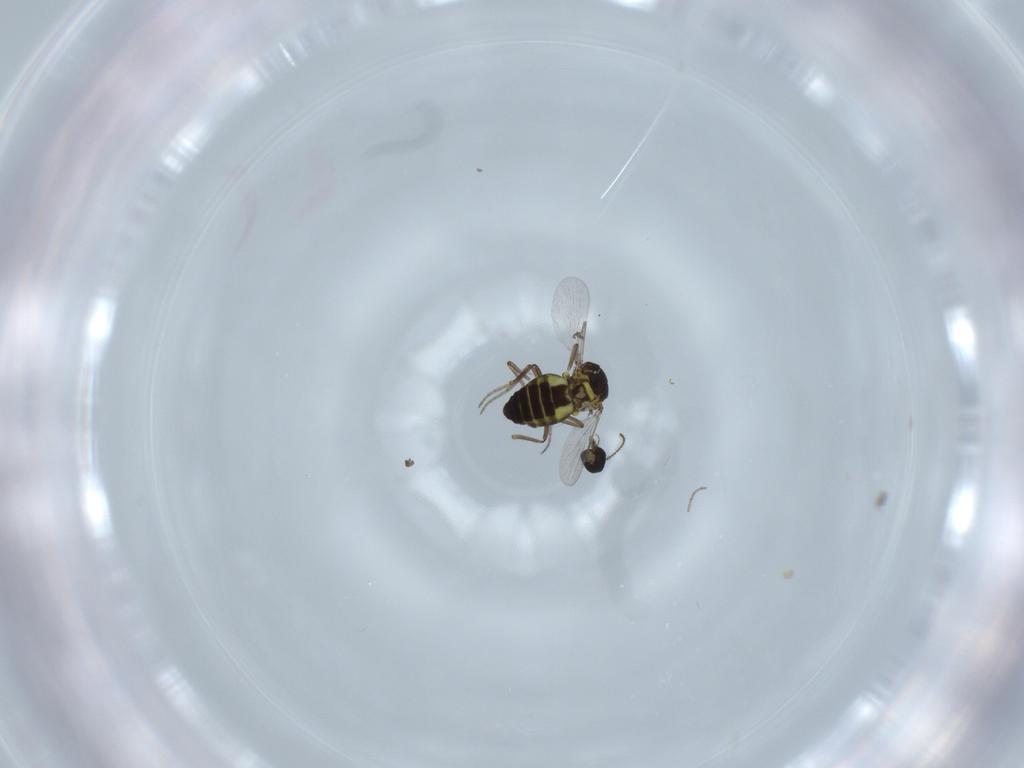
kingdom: Animalia
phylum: Arthropoda
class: Insecta
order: Diptera
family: Ceratopogonidae
